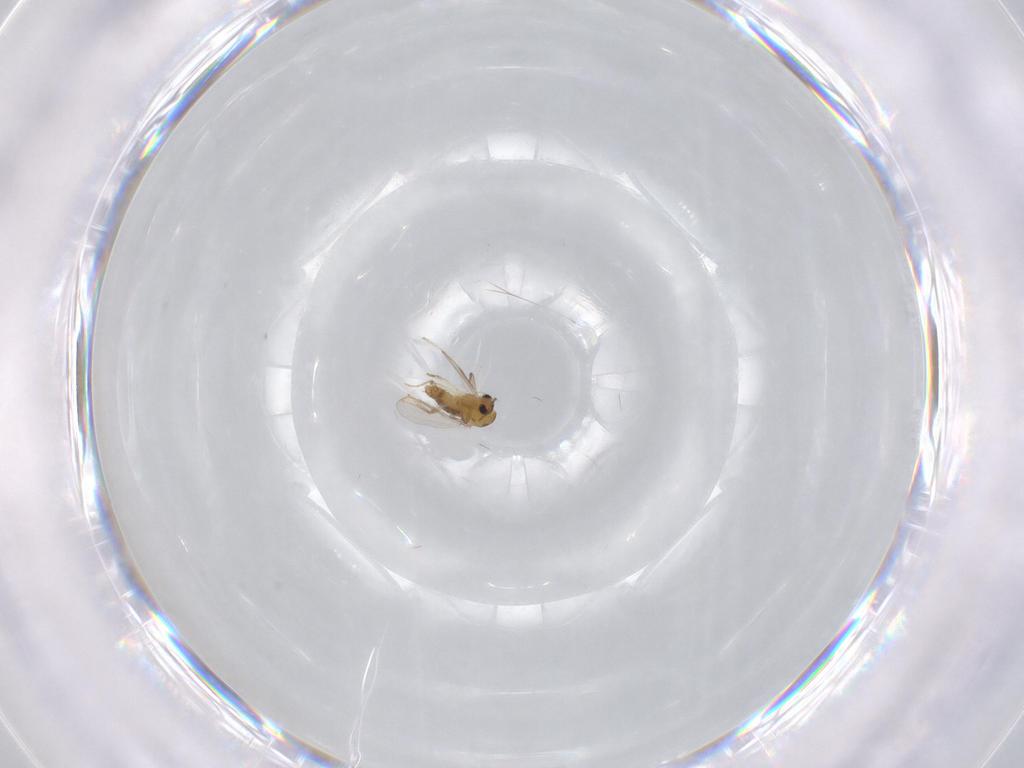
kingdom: Animalia
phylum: Arthropoda
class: Insecta
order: Diptera
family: Cecidomyiidae
